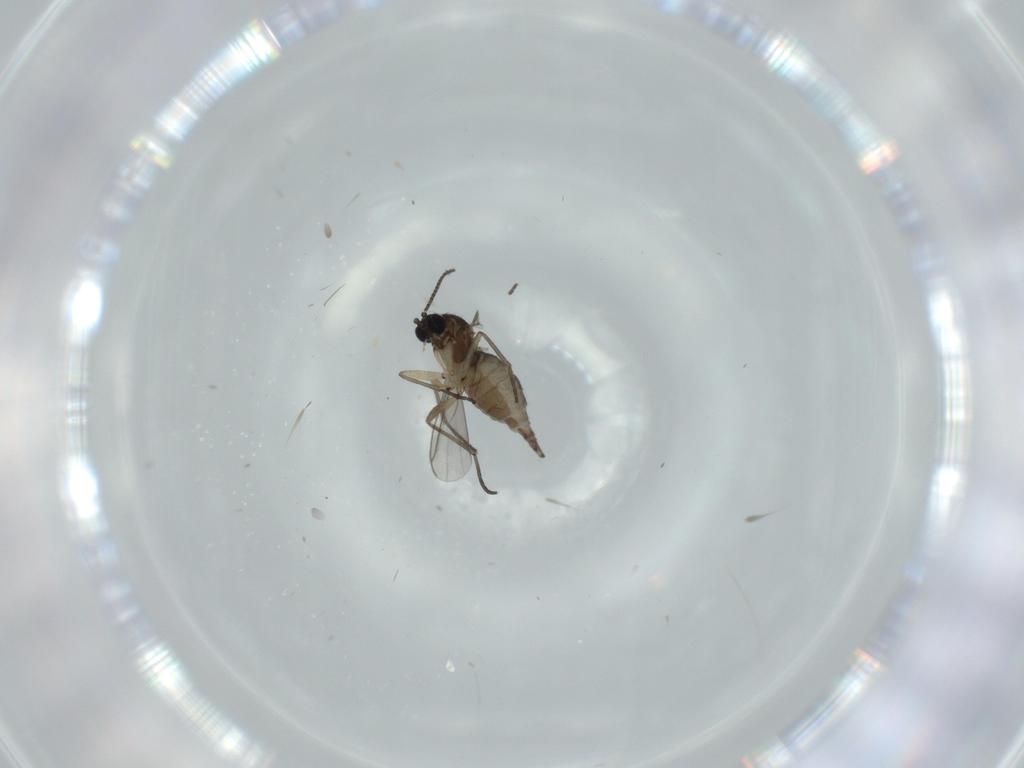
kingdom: Animalia
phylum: Arthropoda
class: Insecta
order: Diptera
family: Sciaridae
